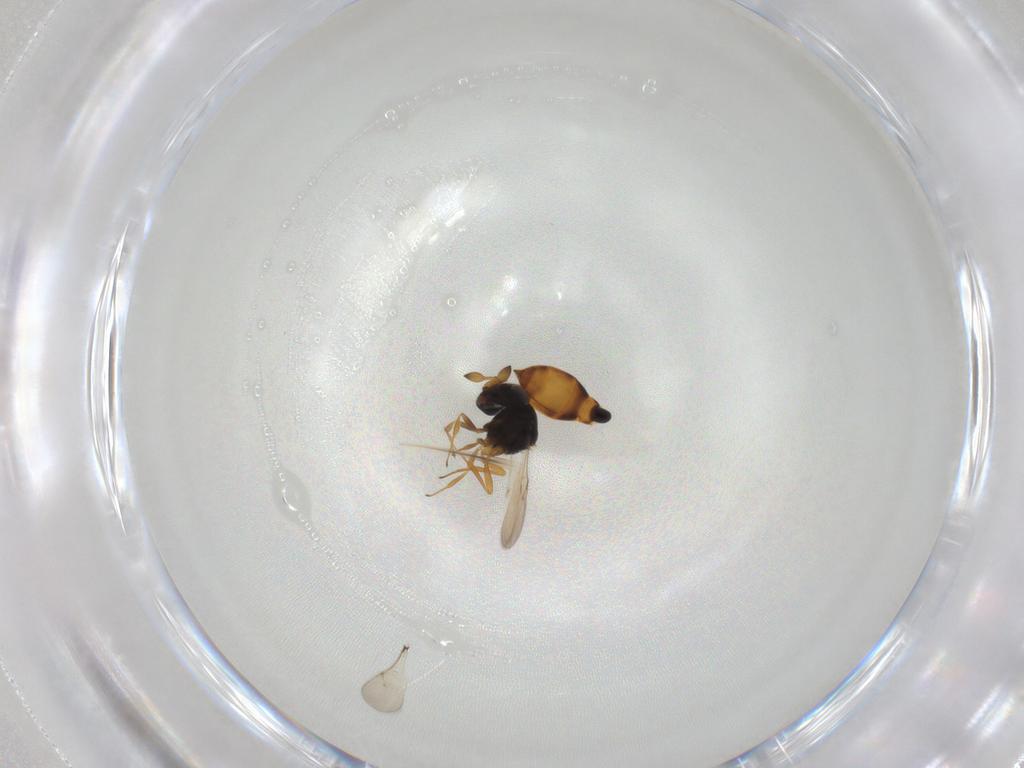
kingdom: Animalia
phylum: Arthropoda
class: Insecta
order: Hymenoptera
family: Scelionidae
